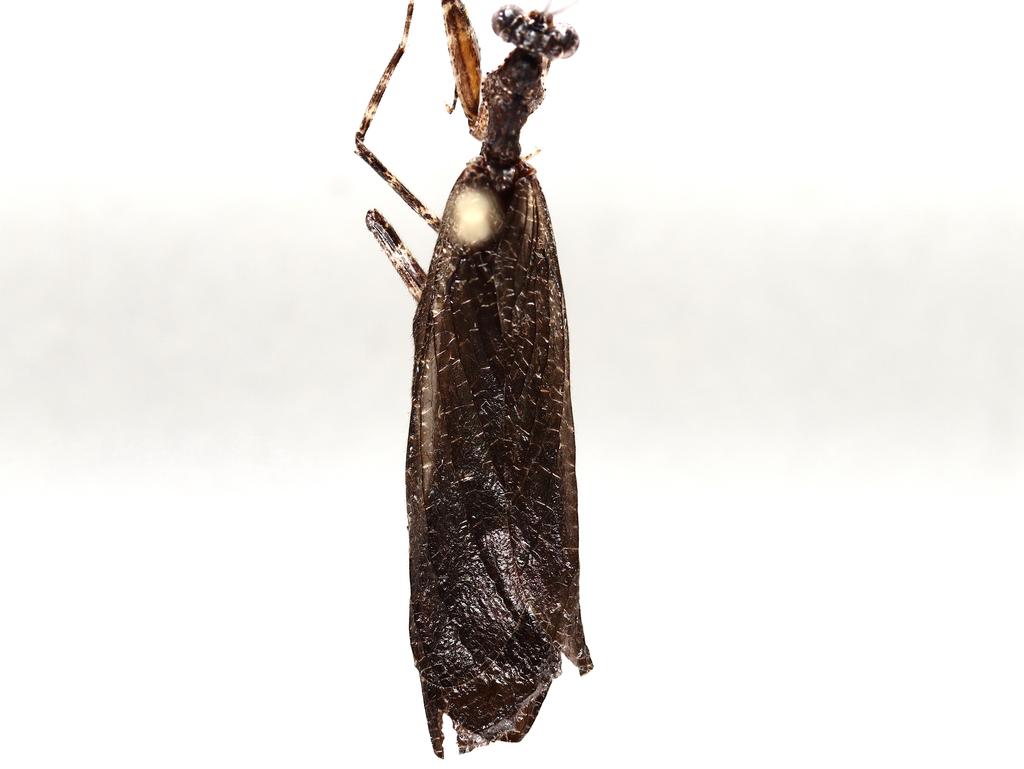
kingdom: Animalia
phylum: Arthropoda
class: Insecta
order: Diptera
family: Cecidomyiidae
